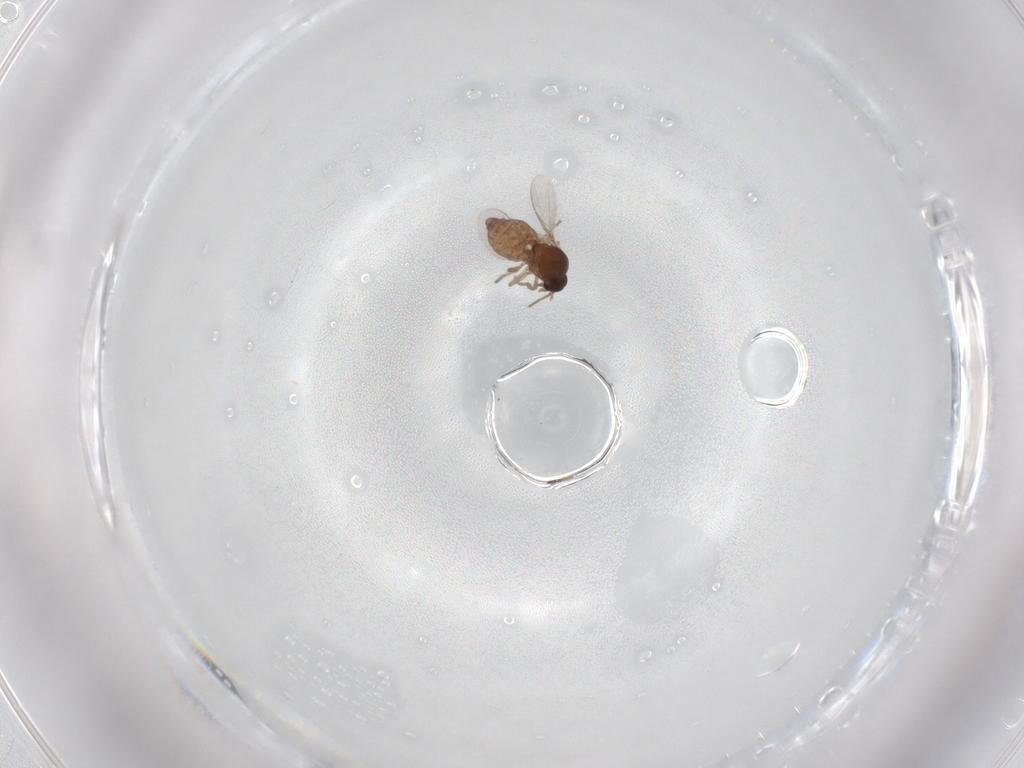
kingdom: Animalia
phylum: Arthropoda
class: Insecta
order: Diptera
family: Ceratopogonidae
